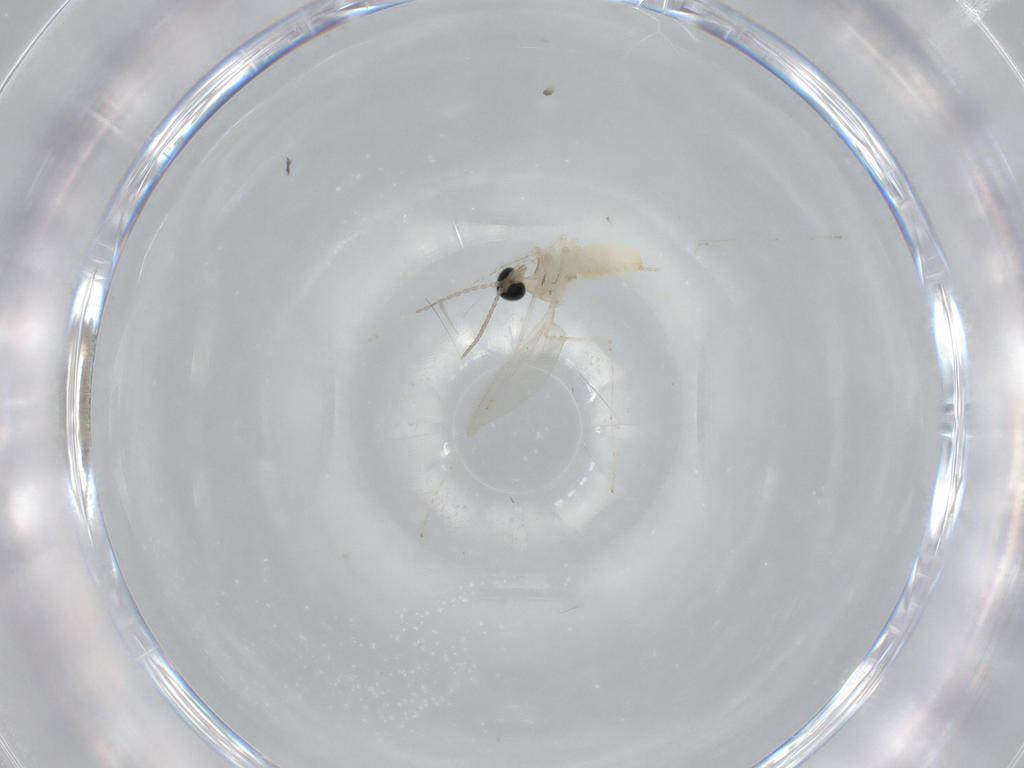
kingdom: Animalia
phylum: Arthropoda
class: Insecta
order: Diptera
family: Cecidomyiidae
